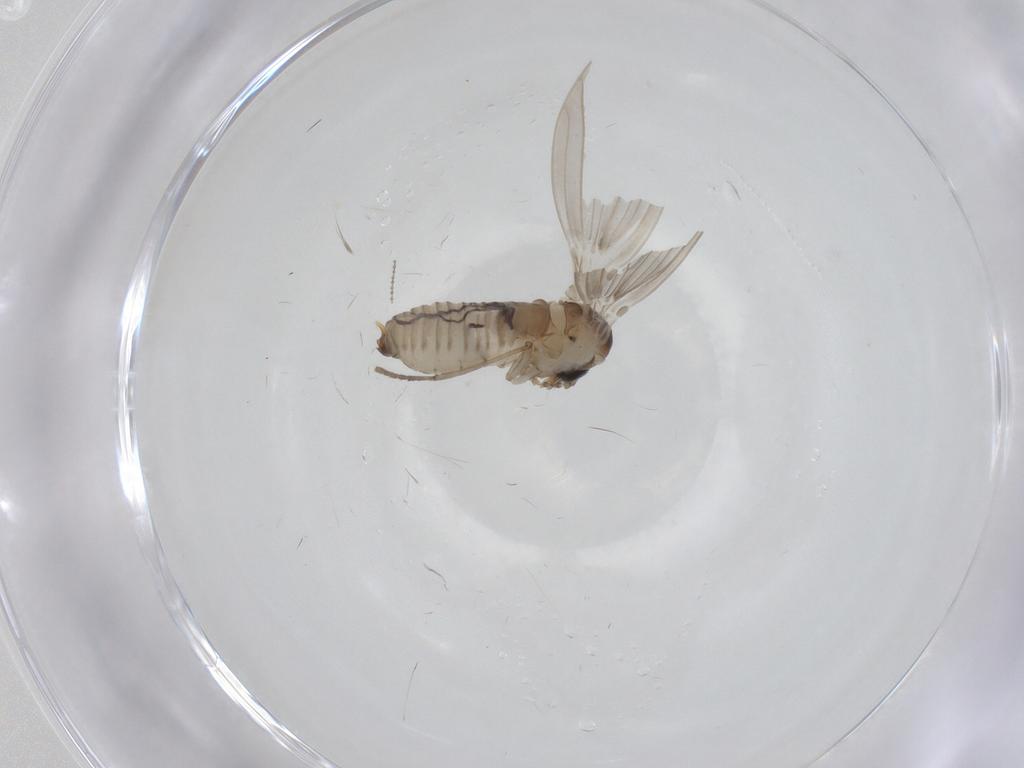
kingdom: Animalia
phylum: Arthropoda
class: Insecta
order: Diptera
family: Psychodidae
